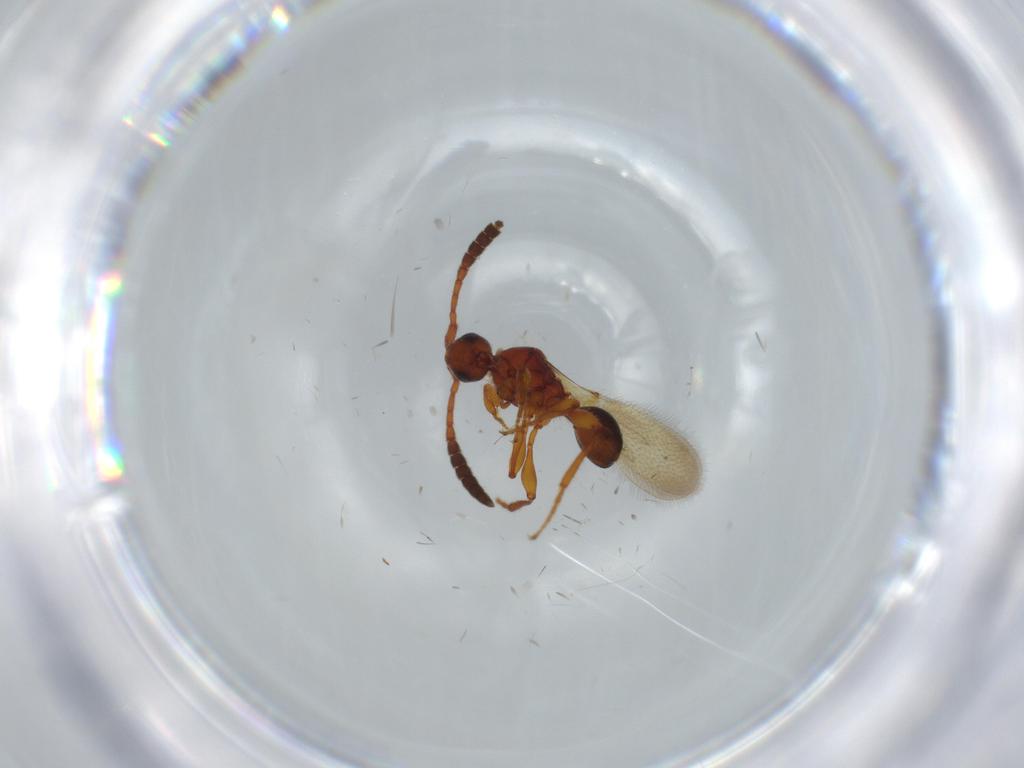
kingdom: Animalia
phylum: Arthropoda
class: Insecta
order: Hymenoptera
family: Diapriidae
